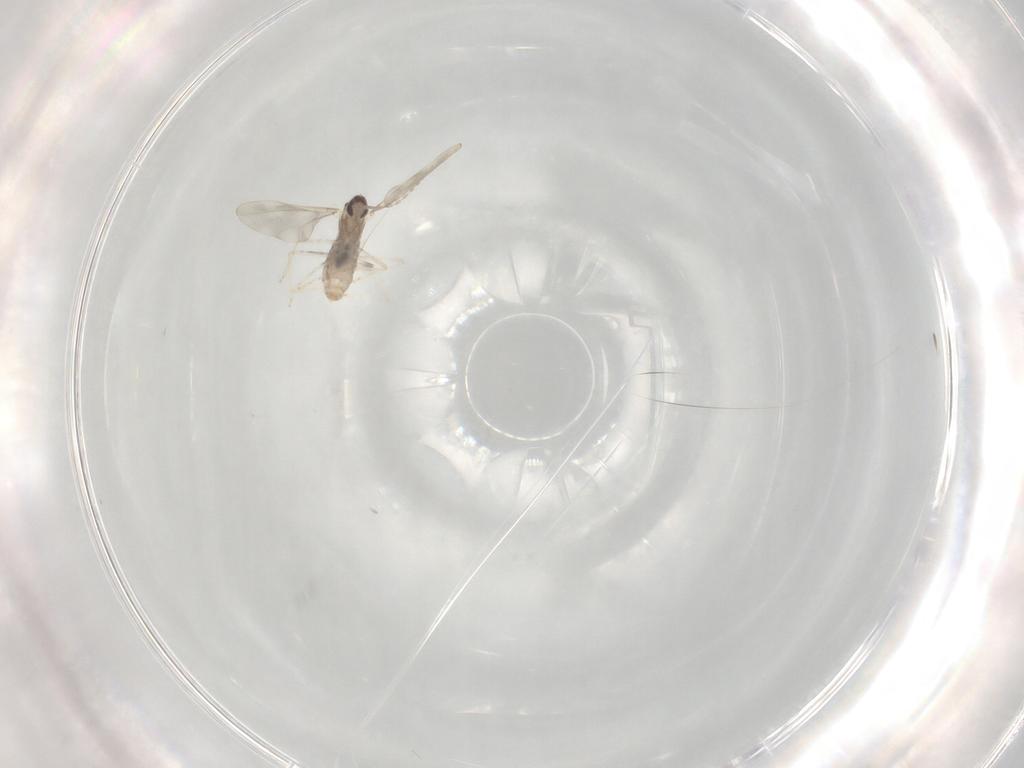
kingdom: Animalia
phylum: Arthropoda
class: Insecta
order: Diptera
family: Cecidomyiidae
